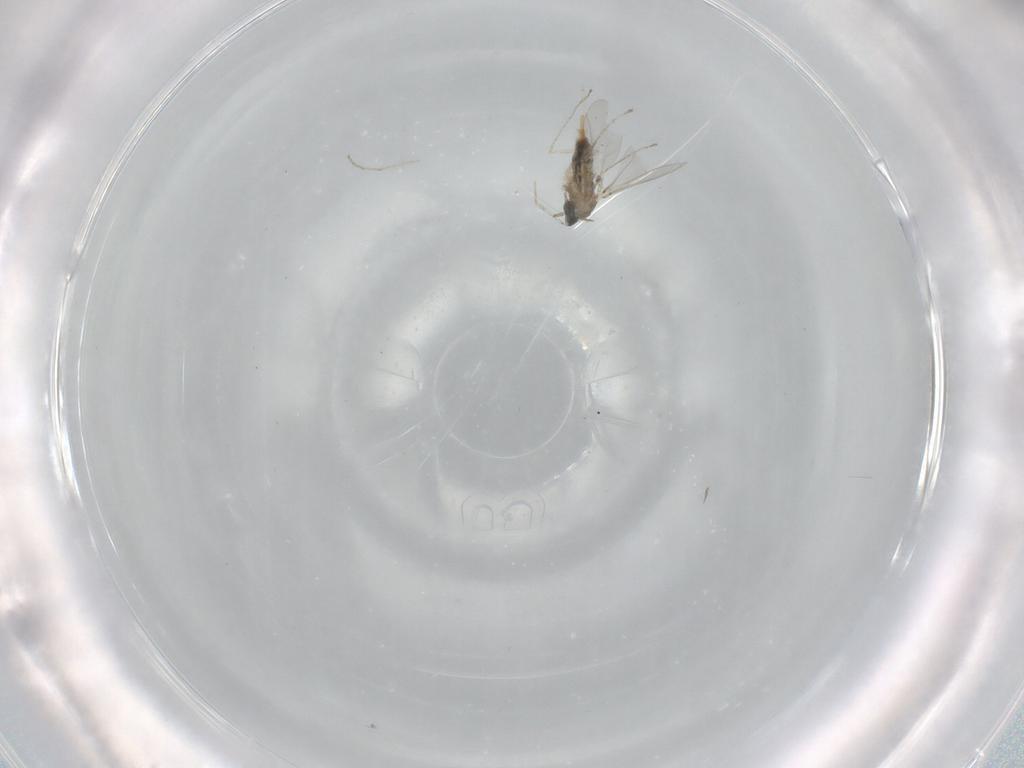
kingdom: Animalia
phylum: Arthropoda
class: Insecta
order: Diptera
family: Cecidomyiidae
